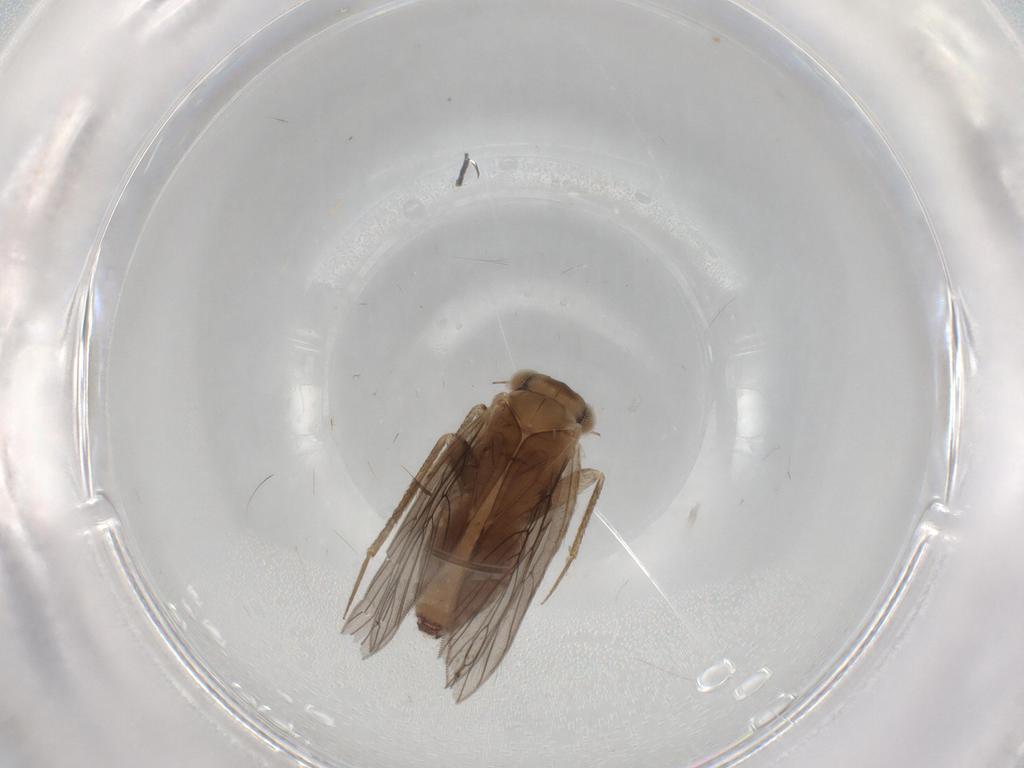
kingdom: Animalia
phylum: Arthropoda
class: Insecta
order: Psocodea
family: Lepidopsocidae
